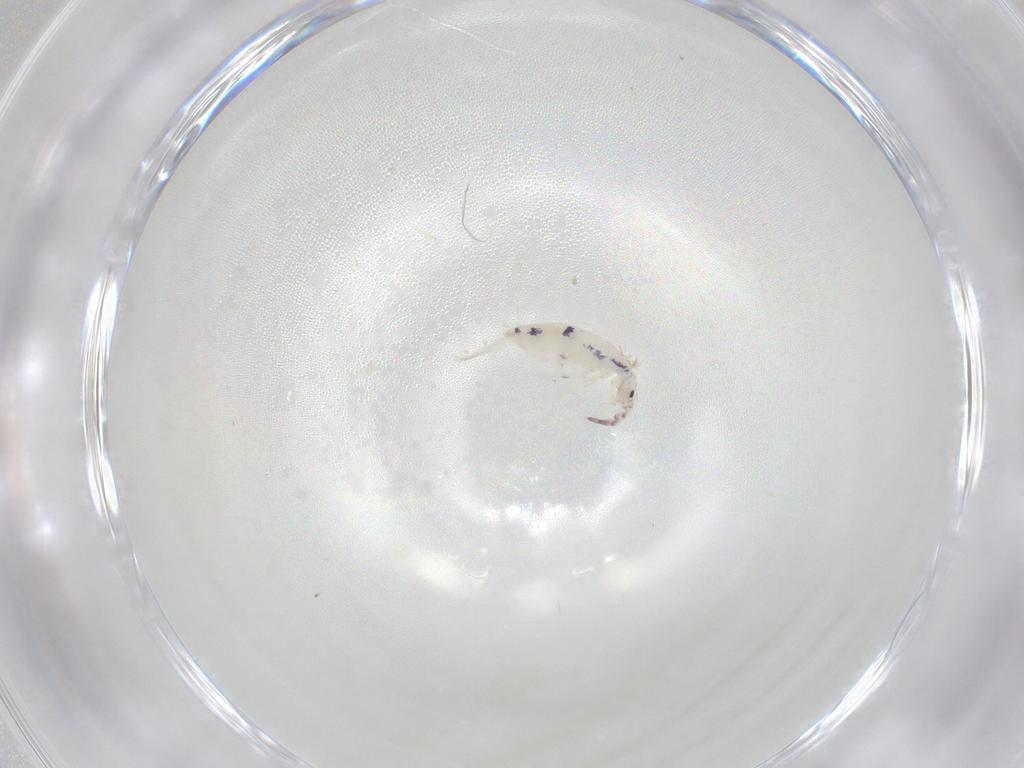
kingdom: Animalia
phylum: Arthropoda
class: Collembola
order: Entomobryomorpha
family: Entomobryidae
